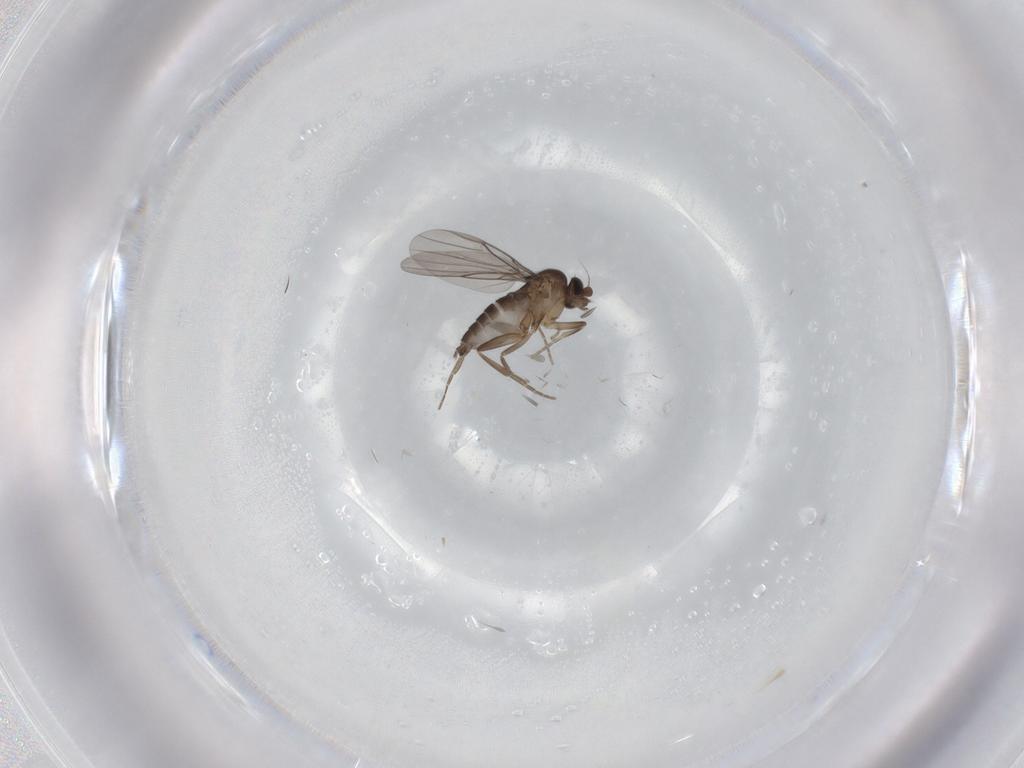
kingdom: Animalia
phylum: Arthropoda
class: Insecta
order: Diptera
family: Phoridae
